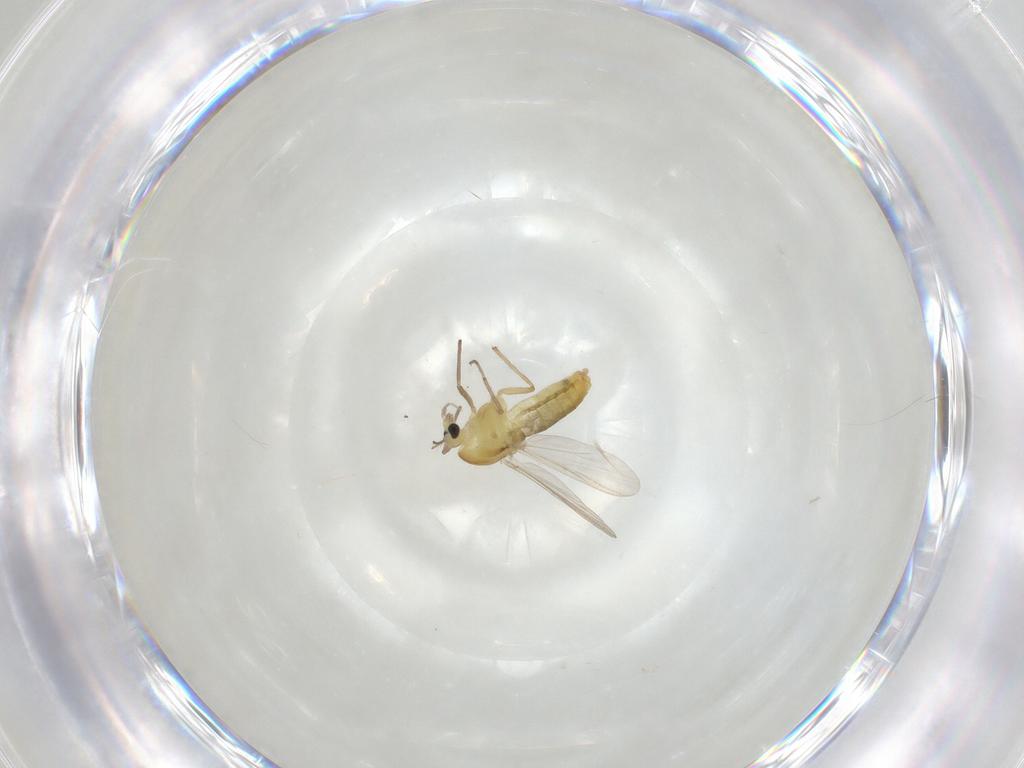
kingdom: Animalia
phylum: Arthropoda
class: Insecta
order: Diptera
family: Chironomidae
